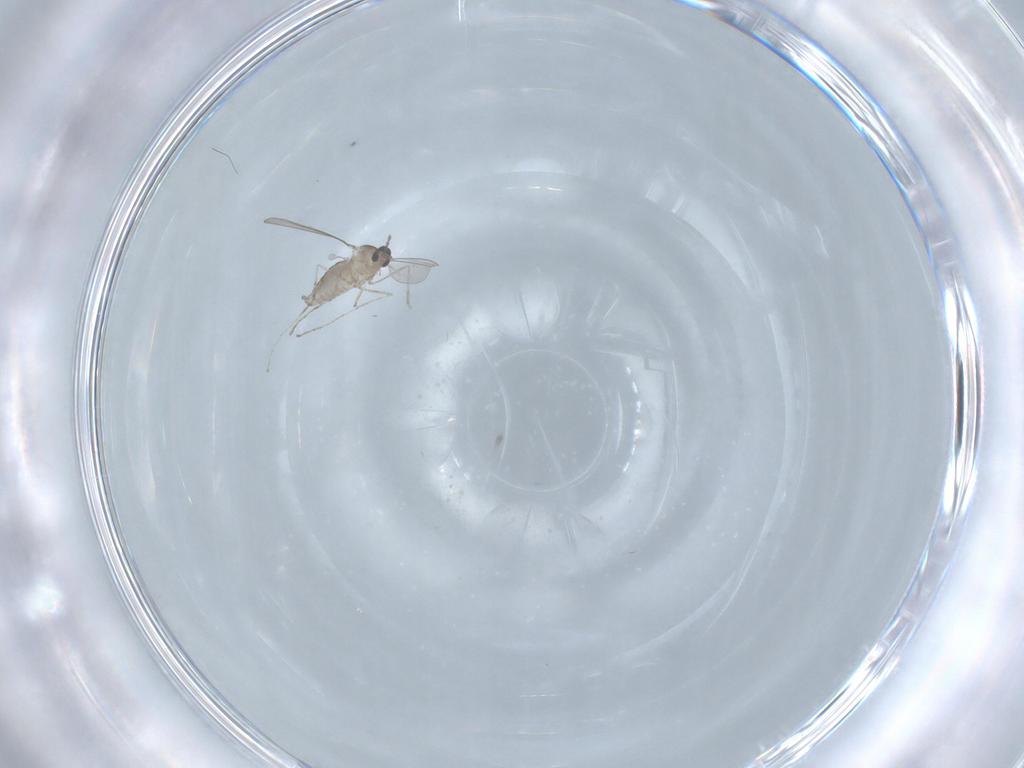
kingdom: Animalia
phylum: Arthropoda
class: Insecta
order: Diptera
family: Cecidomyiidae
